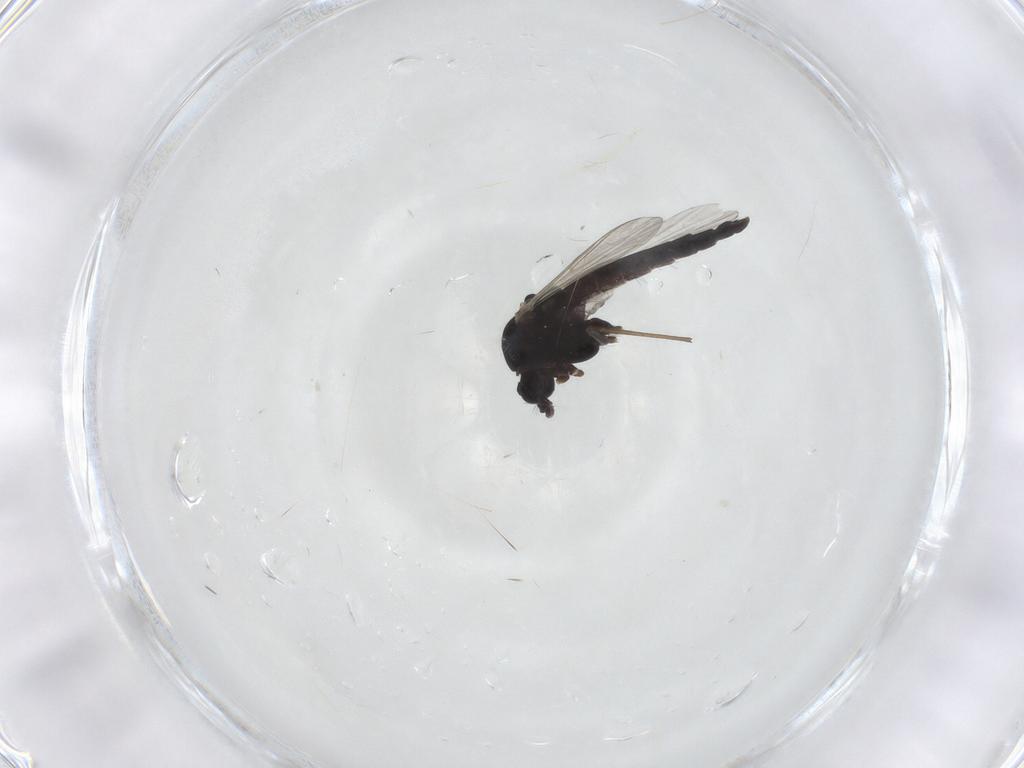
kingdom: Animalia
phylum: Arthropoda
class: Insecta
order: Diptera
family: Chironomidae
